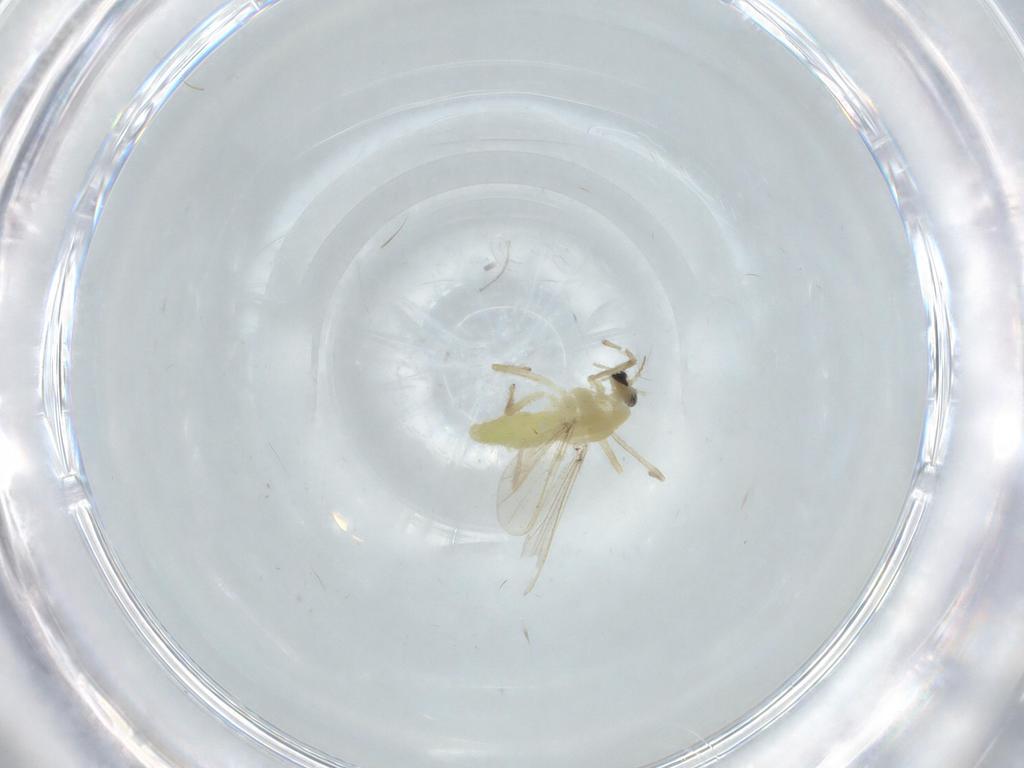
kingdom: Animalia
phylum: Arthropoda
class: Insecta
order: Diptera
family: Chironomidae
